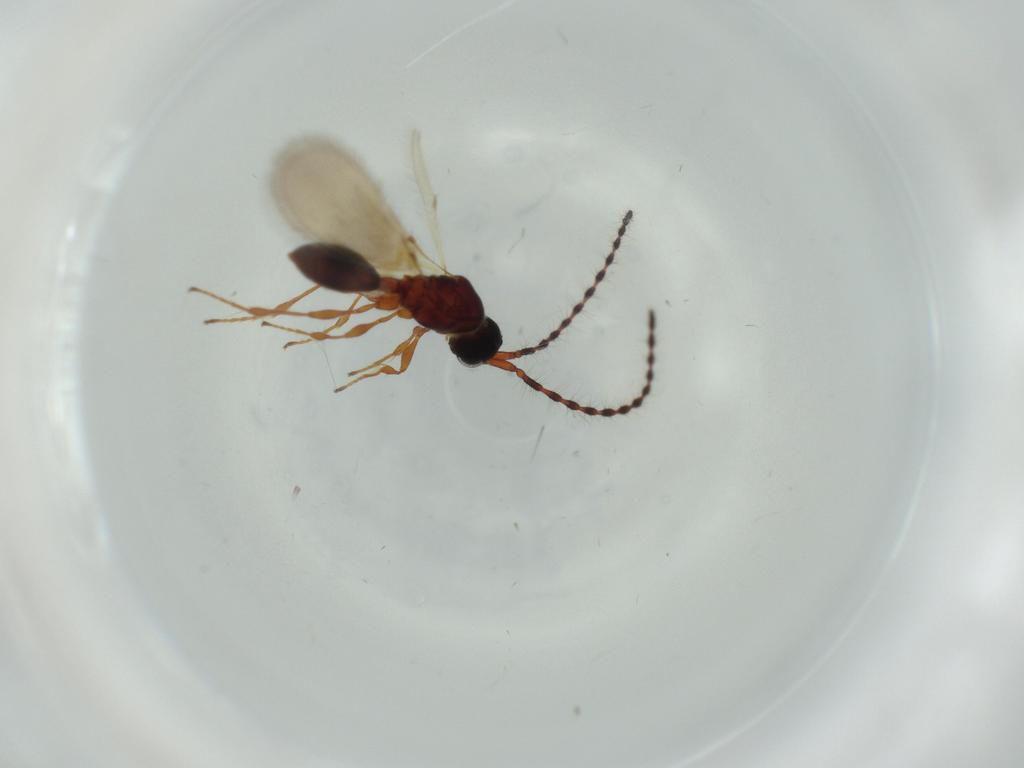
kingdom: Animalia
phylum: Arthropoda
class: Insecta
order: Hymenoptera
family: Diapriidae
